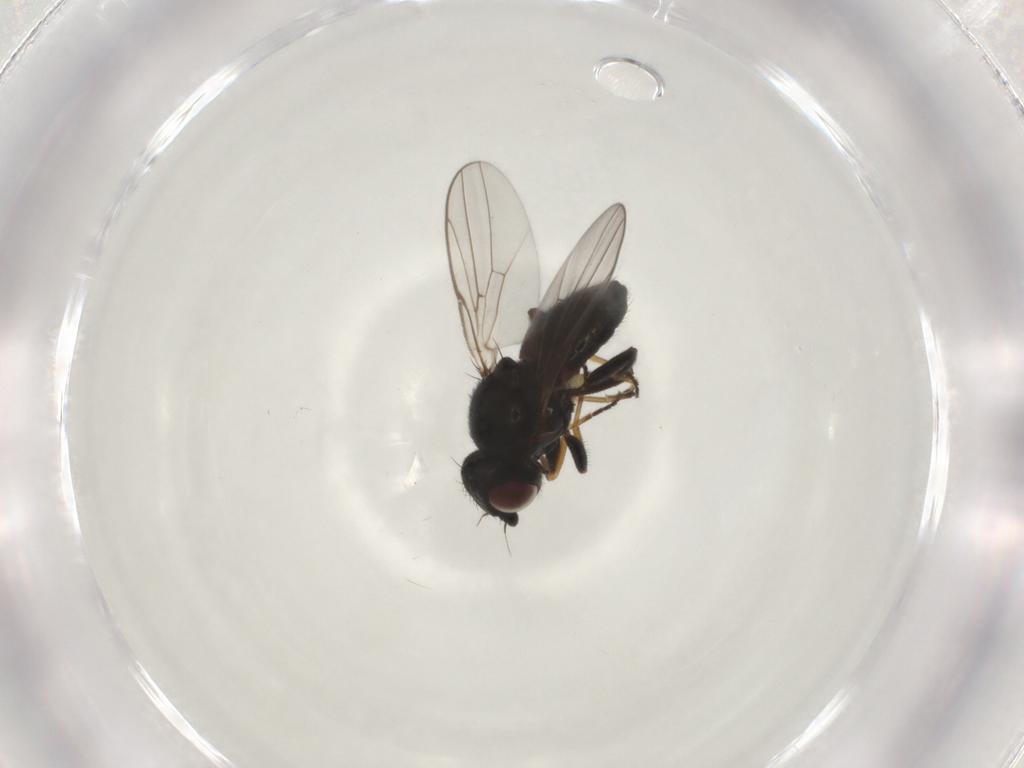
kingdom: Animalia
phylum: Arthropoda
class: Insecta
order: Diptera
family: Chloropidae
